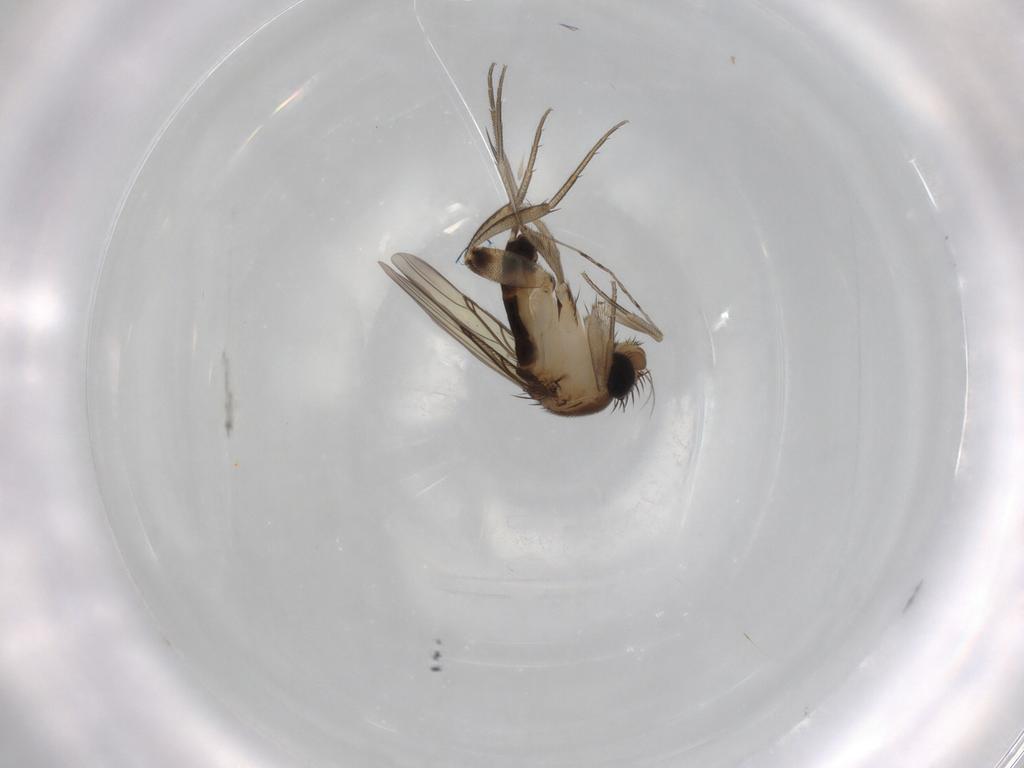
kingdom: Animalia
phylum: Arthropoda
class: Insecta
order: Diptera
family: Phoridae
